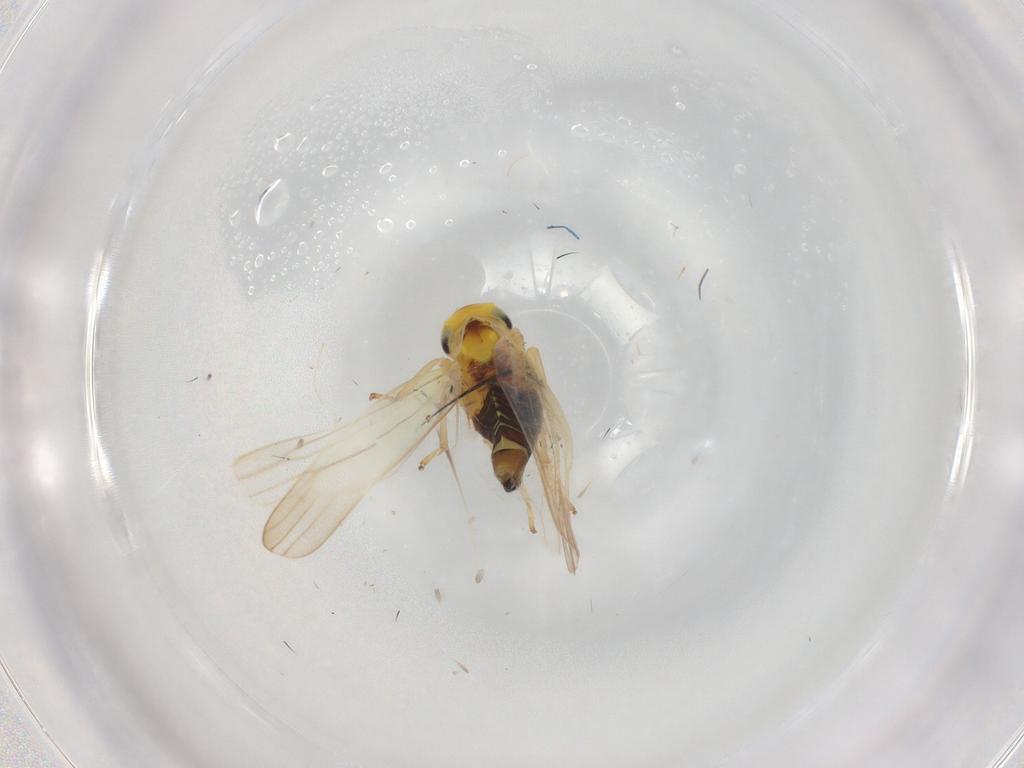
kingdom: Animalia
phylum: Arthropoda
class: Insecta
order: Hemiptera
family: Cicadellidae
